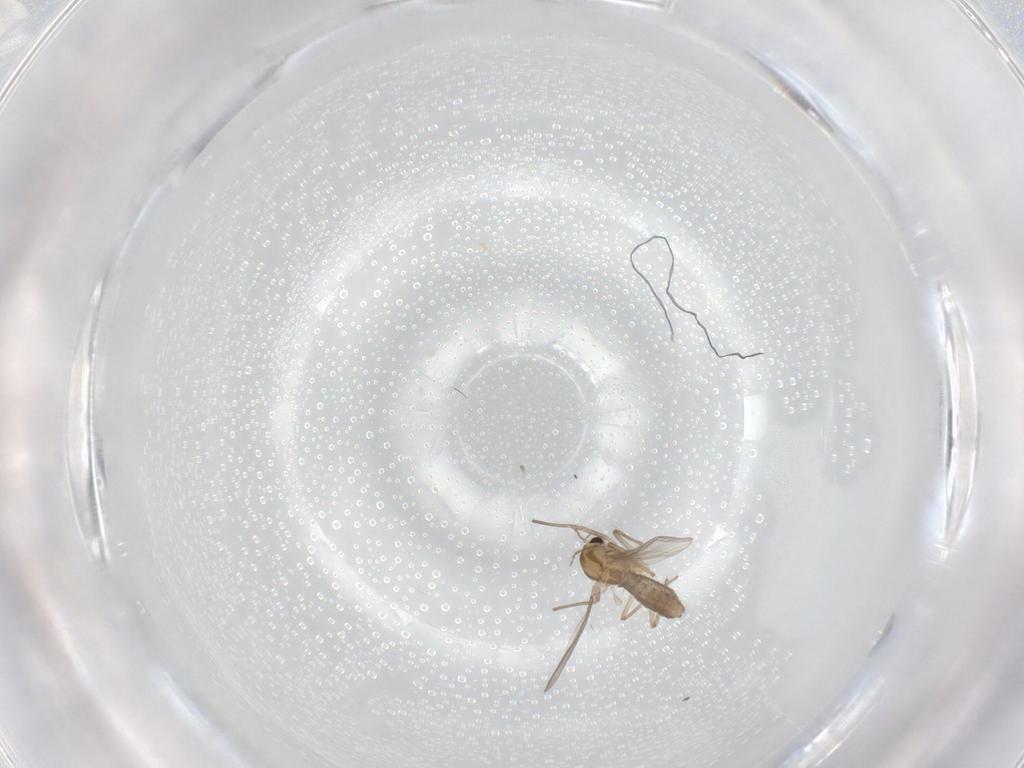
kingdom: Animalia
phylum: Arthropoda
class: Insecta
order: Diptera
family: Chironomidae
